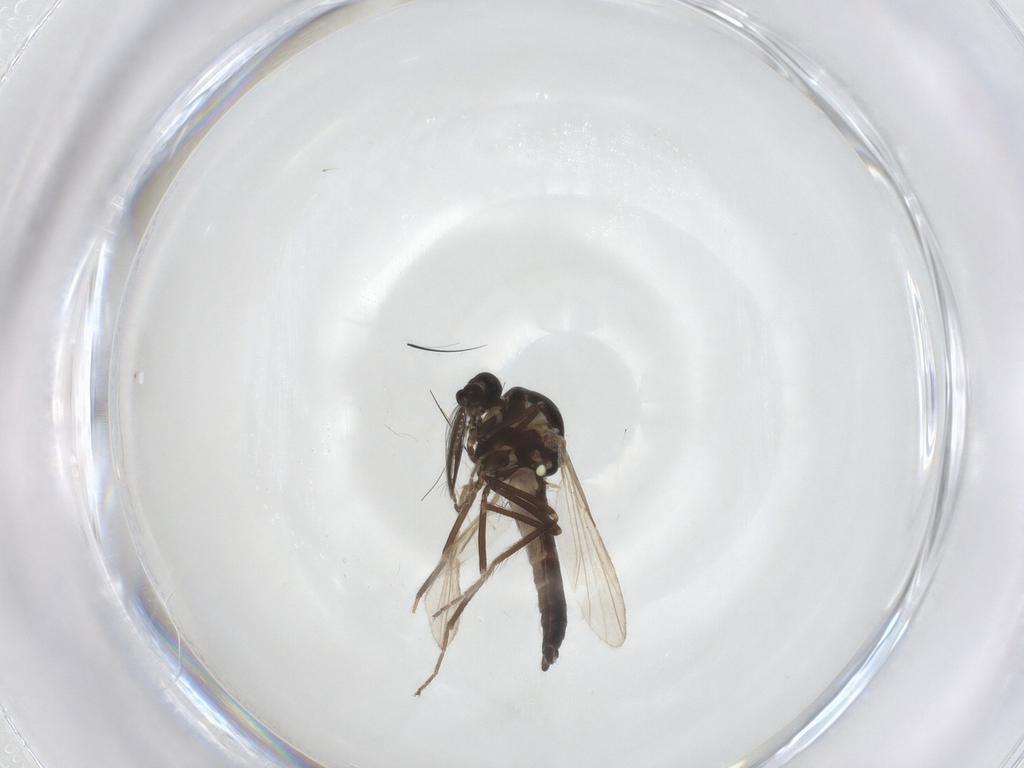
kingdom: Animalia
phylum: Arthropoda
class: Insecta
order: Diptera
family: Ceratopogonidae
